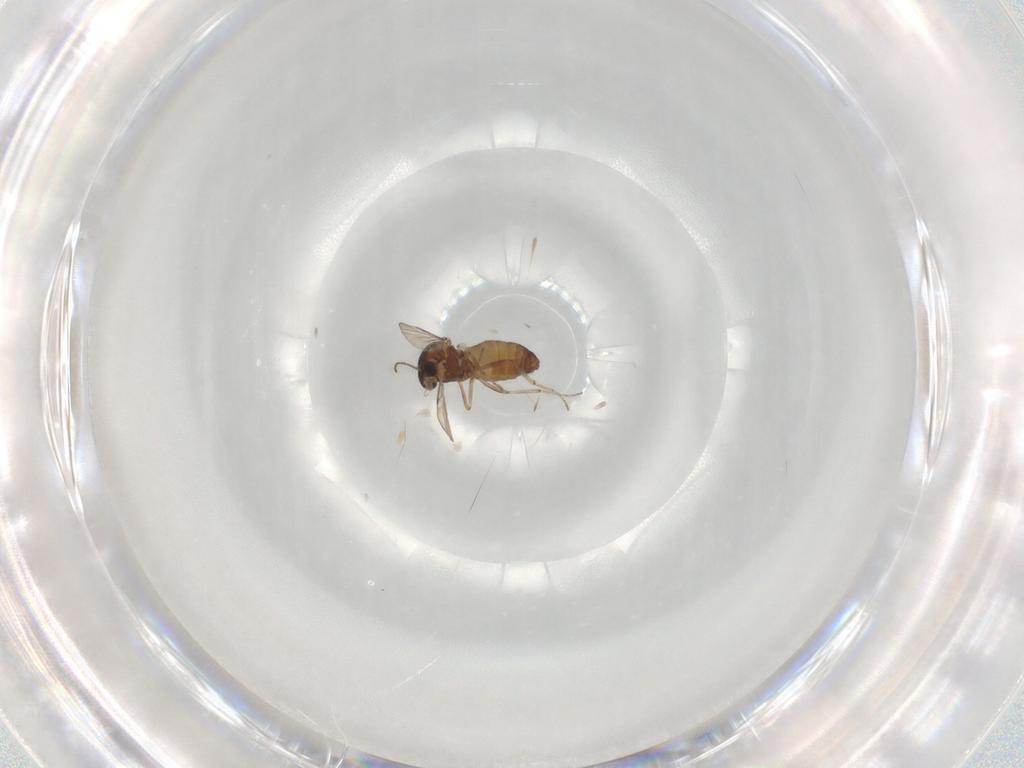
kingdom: Animalia
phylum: Arthropoda
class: Insecta
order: Diptera
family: Ceratopogonidae
